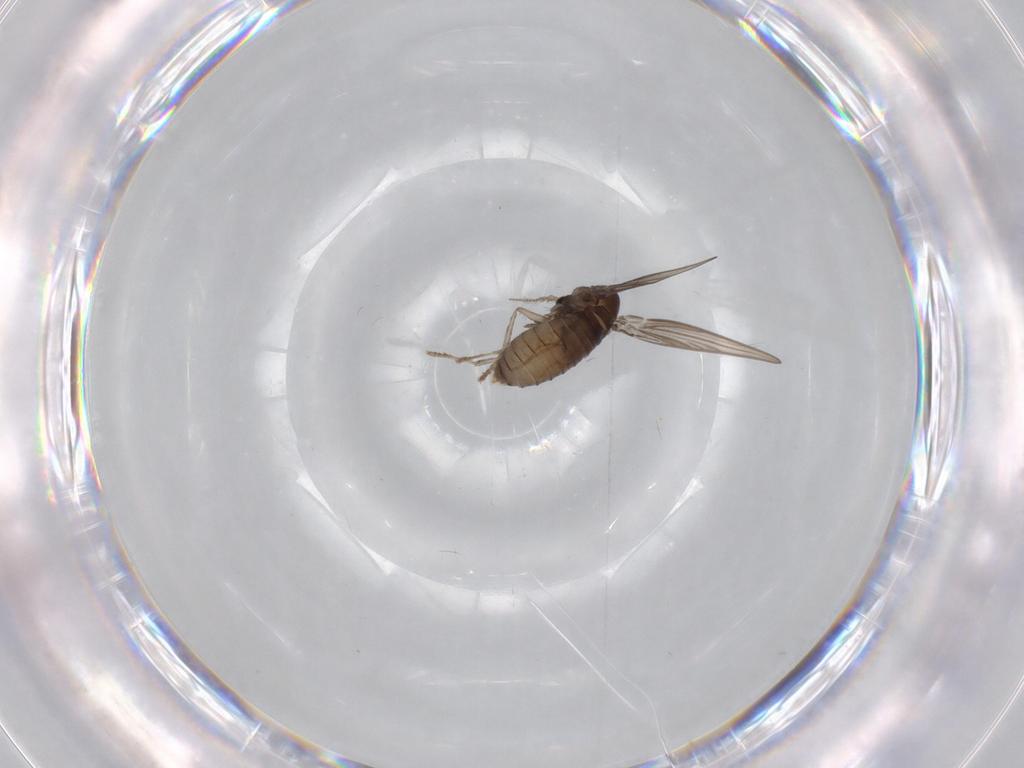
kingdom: Animalia
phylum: Arthropoda
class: Insecta
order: Diptera
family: Psychodidae
